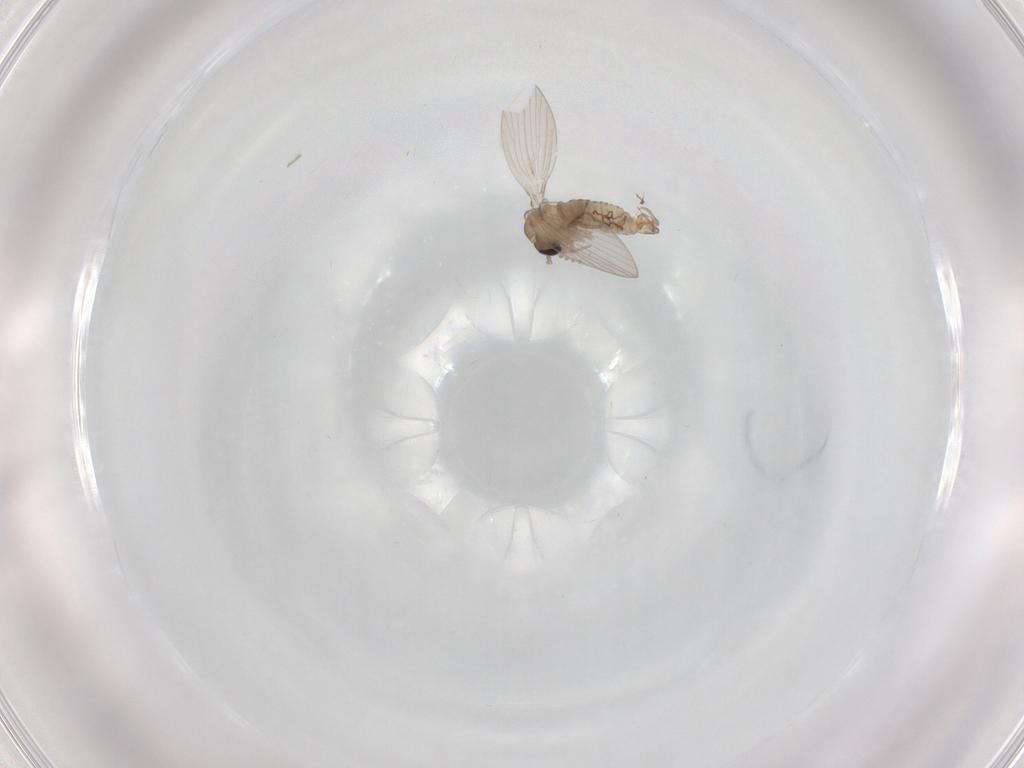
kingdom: Animalia
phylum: Arthropoda
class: Insecta
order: Diptera
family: Psychodidae
